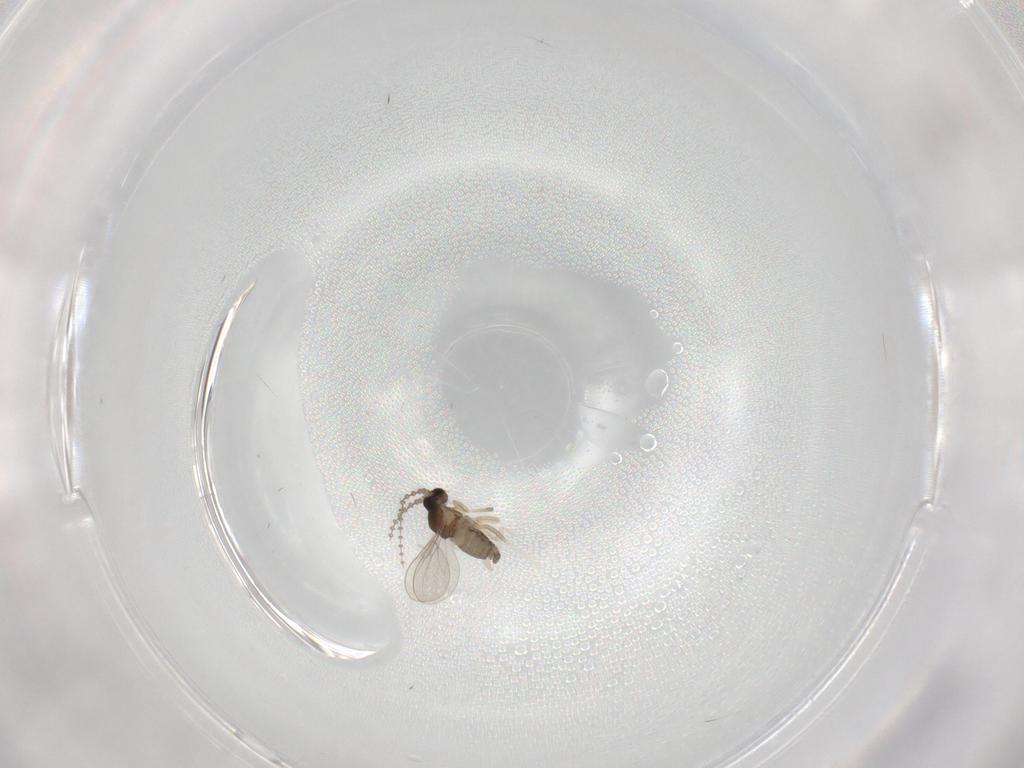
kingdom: Animalia
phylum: Arthropoda
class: Insecta
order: Diptera
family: Cecidomyiidae
